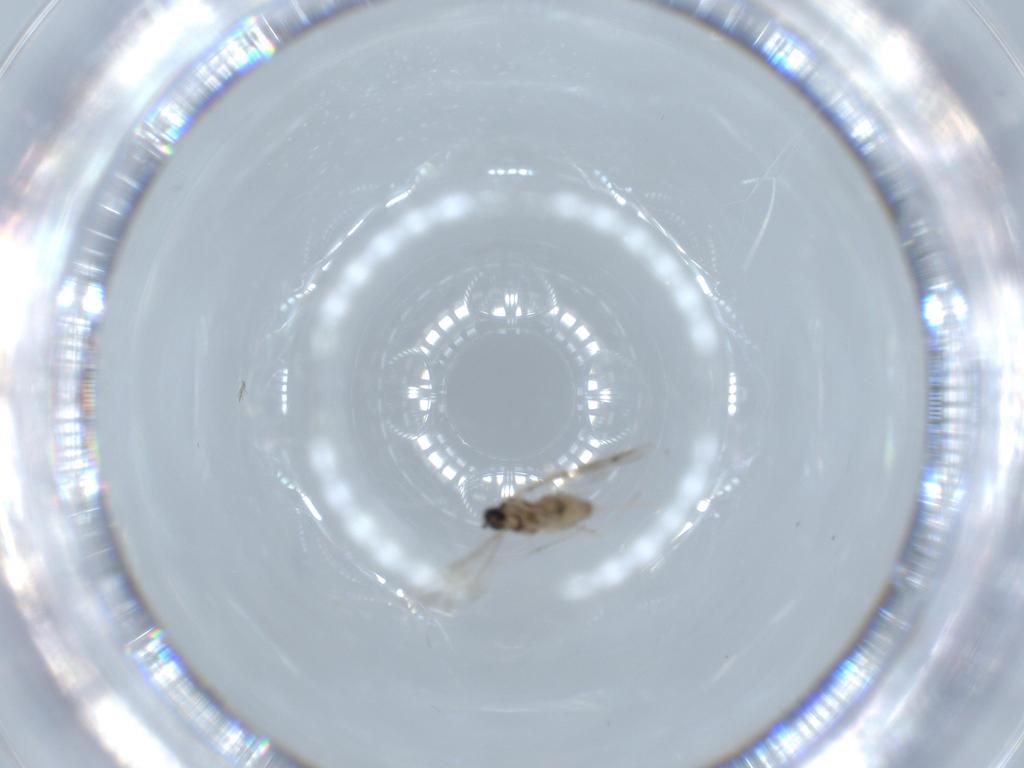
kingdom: Animalia
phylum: Arthropoda
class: Insecta
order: Diptera
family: Cecidomyiidae
